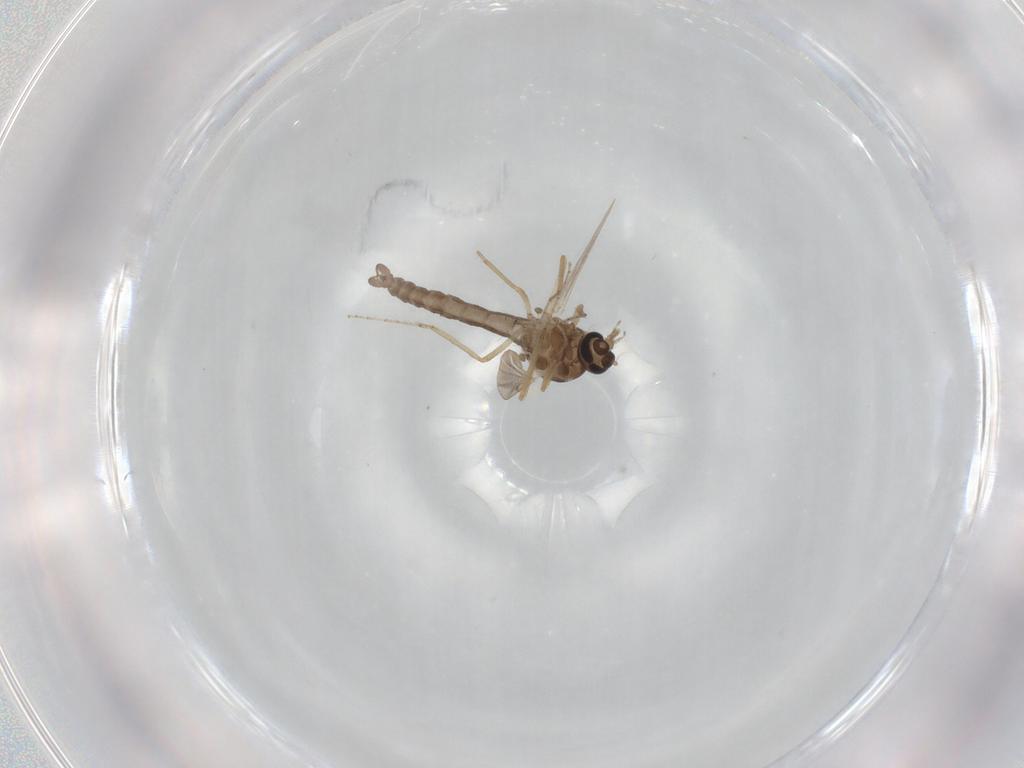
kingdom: Animalia
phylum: Arthropoda
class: Insecta
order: Diptera
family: Ceratopogonidae
